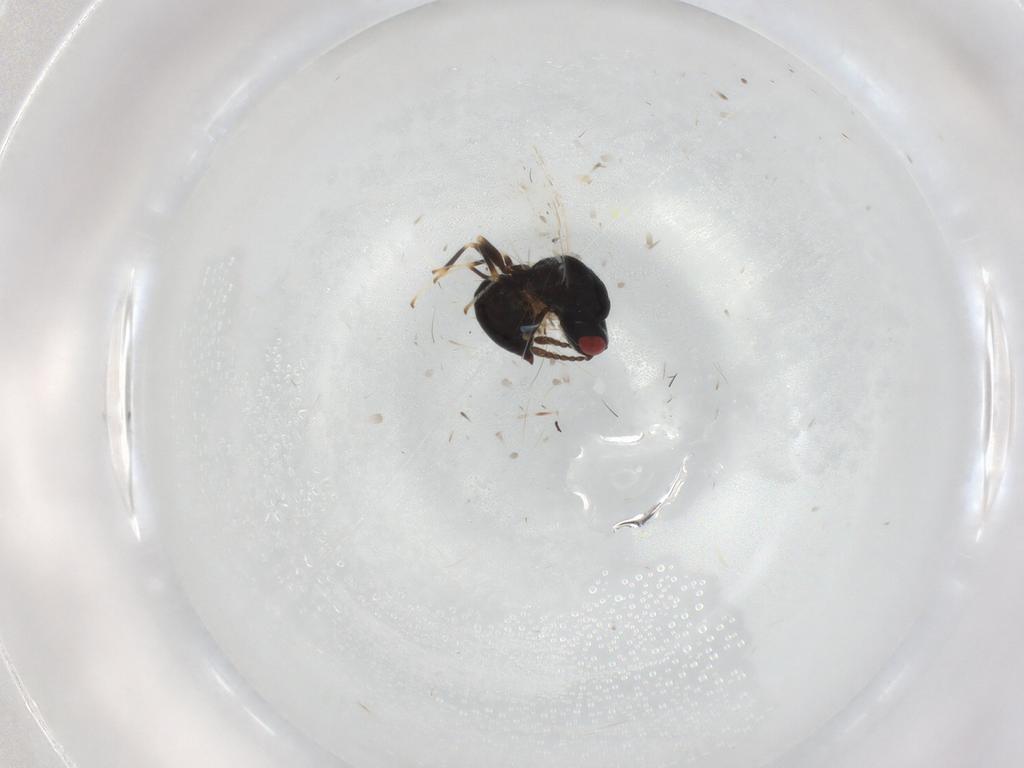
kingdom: Animalia
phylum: Arthropoda
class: Insecta
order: Hymenoptera
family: Eurytomidae
